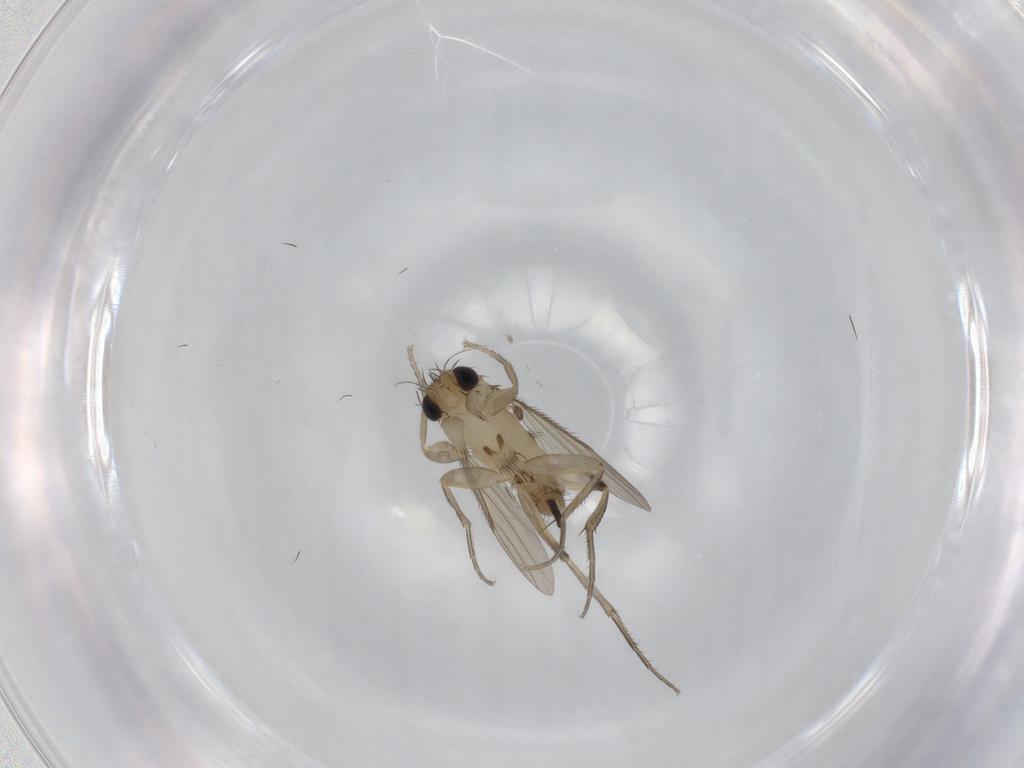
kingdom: Animalia
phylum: Arthropoda
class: Insecta
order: Diptera
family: Phoridae
